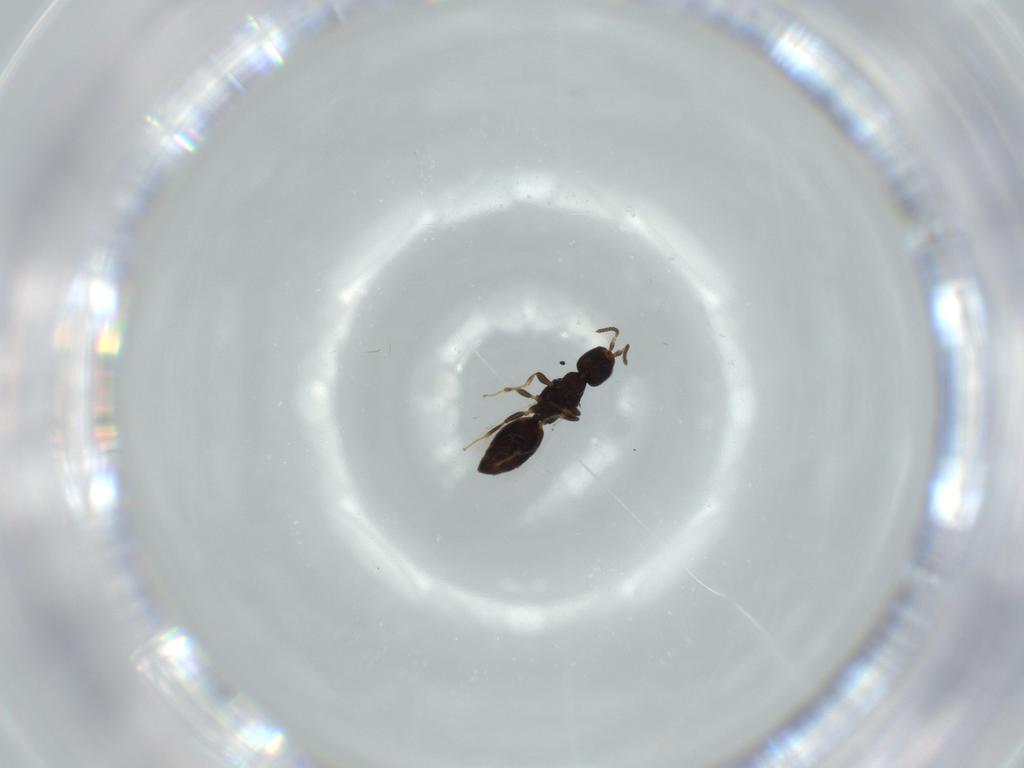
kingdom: Animalia
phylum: Arthropoda
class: Insecta
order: Hymenoptera
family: Bethylidae
